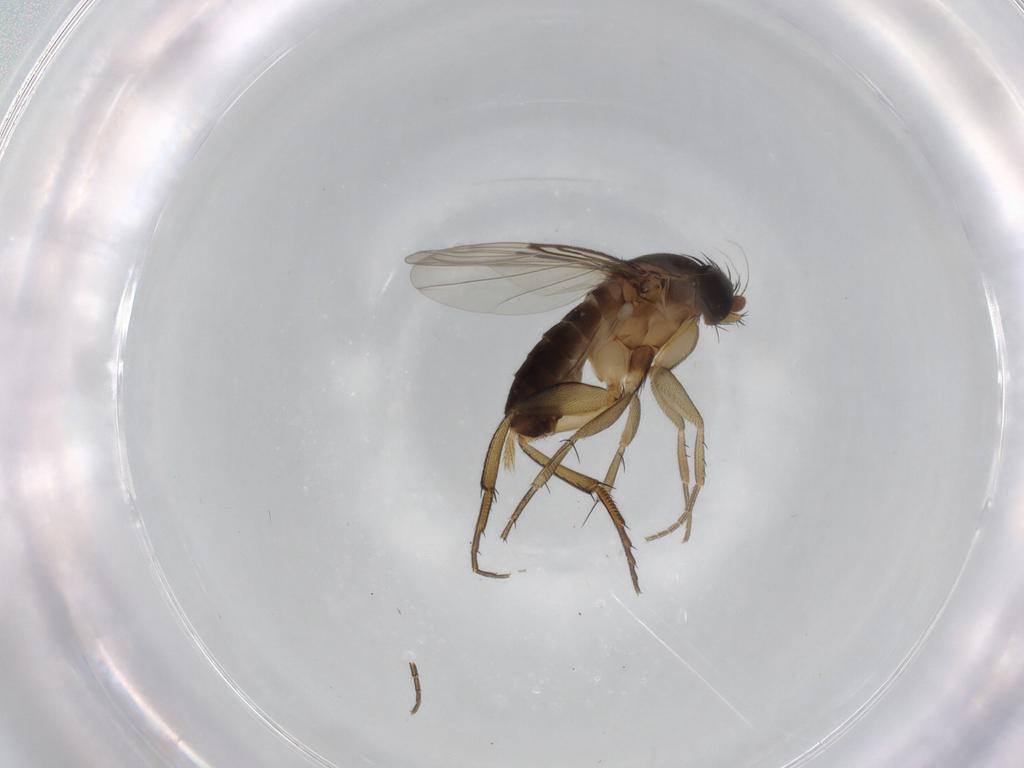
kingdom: Animalia
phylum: Arthropoda
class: Insecta
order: Diptera
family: Phoridae
